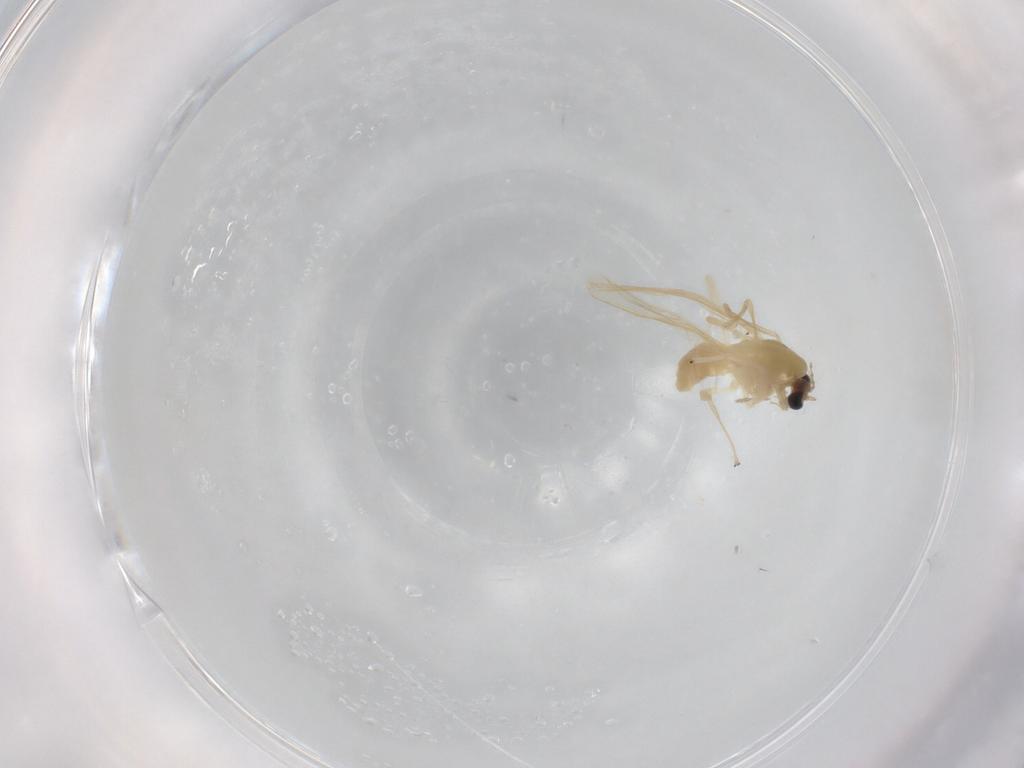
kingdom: Animalia
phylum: Arthropoda
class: Insecta
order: Diptera
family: Chironomidae
